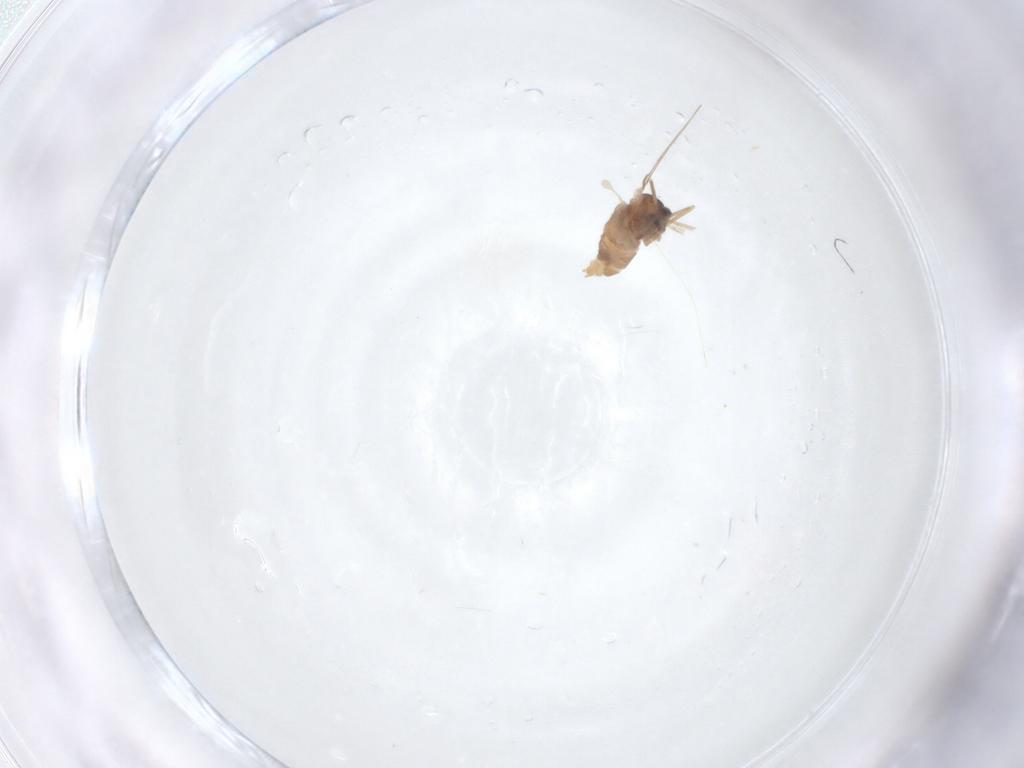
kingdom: Animalia
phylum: Arthropoda
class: Insecta
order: Diptera
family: Cecidomyiidae
